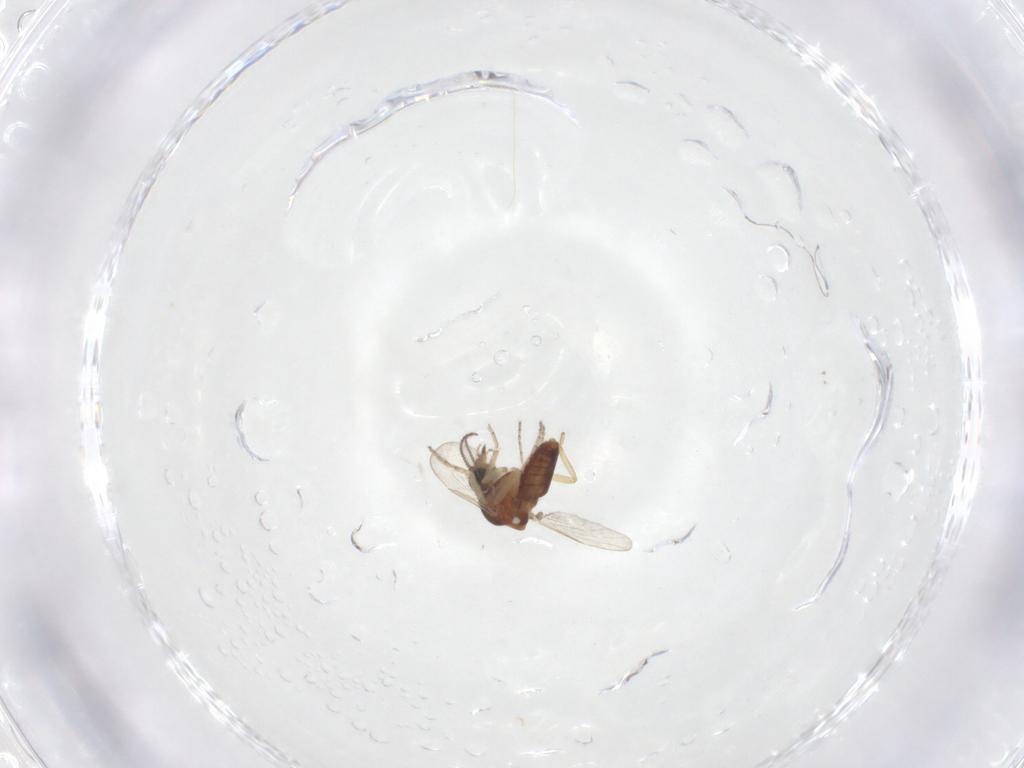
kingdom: Animalia
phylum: Arthropoda
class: Insecta
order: Diptera
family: Ceratopogonidae
